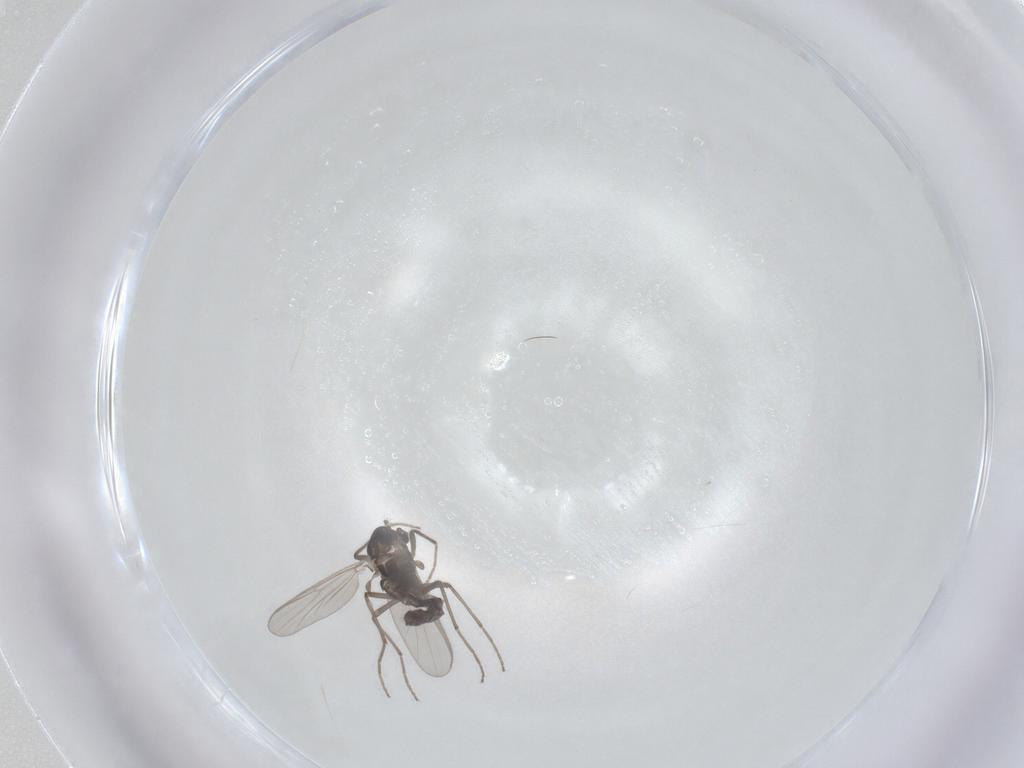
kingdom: Animalia
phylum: Arthropoda
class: Insecta
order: Diptera
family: Chironomidae
